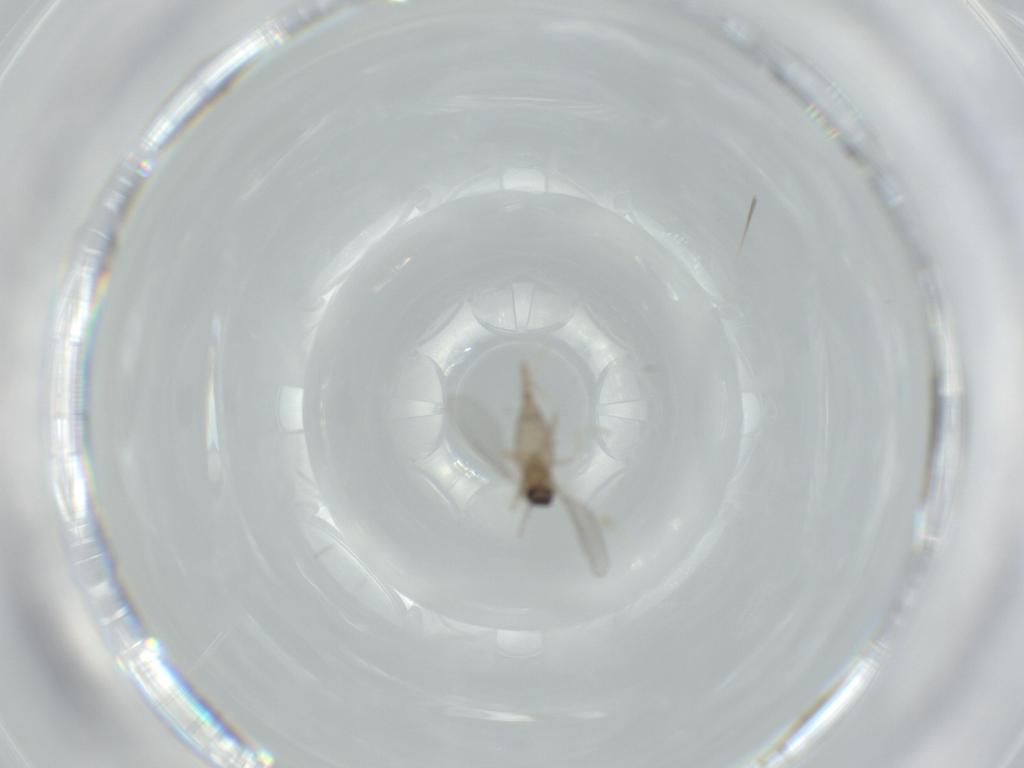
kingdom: Animalia
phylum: Arthropoda
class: Insecta
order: Diptera
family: Cecidomyiidae
